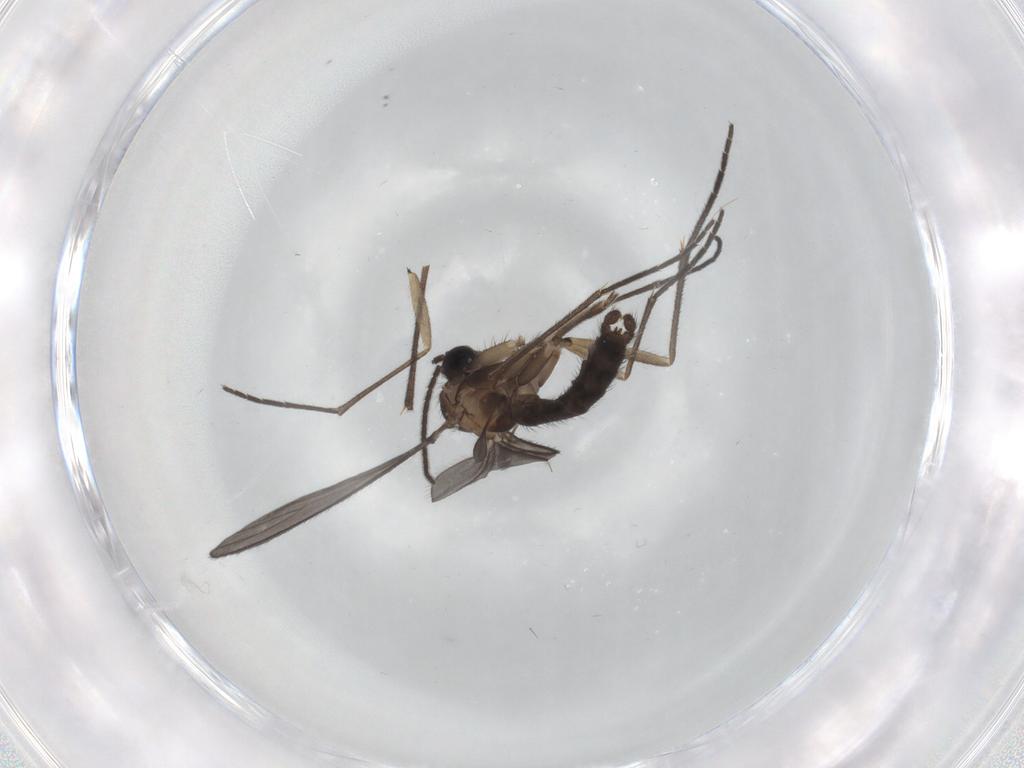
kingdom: Animalia
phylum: Arthropoda
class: Insecta
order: Diptera
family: Sciaridae
